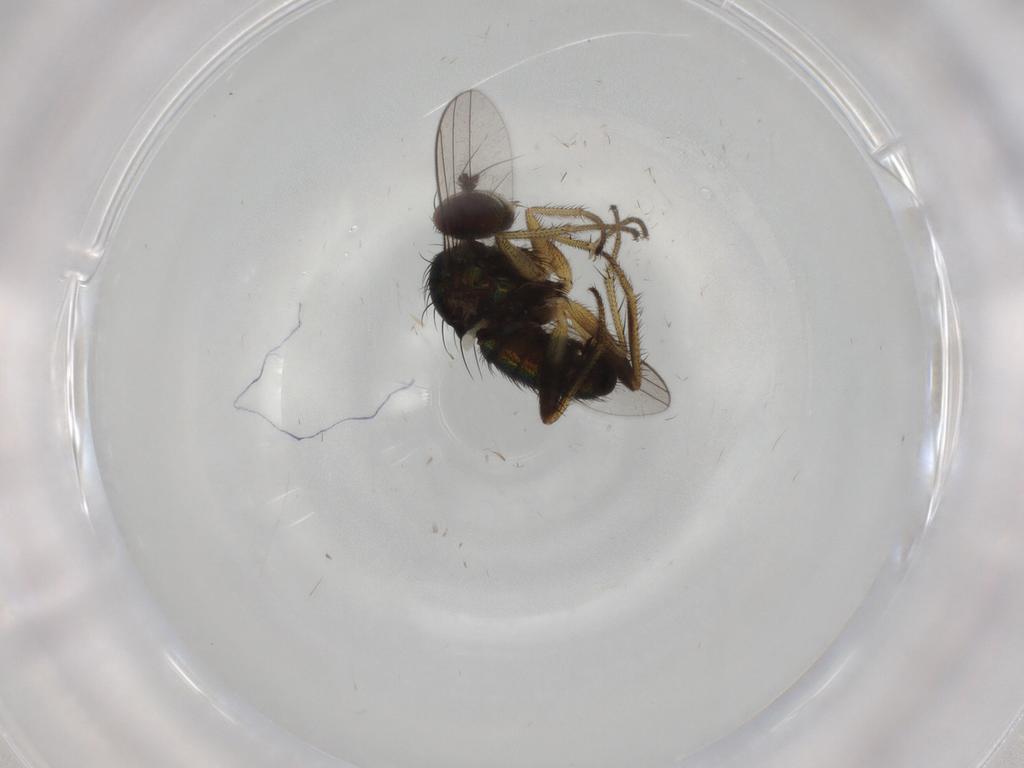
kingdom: Animalia
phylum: Arthropoda
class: Insecta
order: Diptera
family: Dolichopodidae
